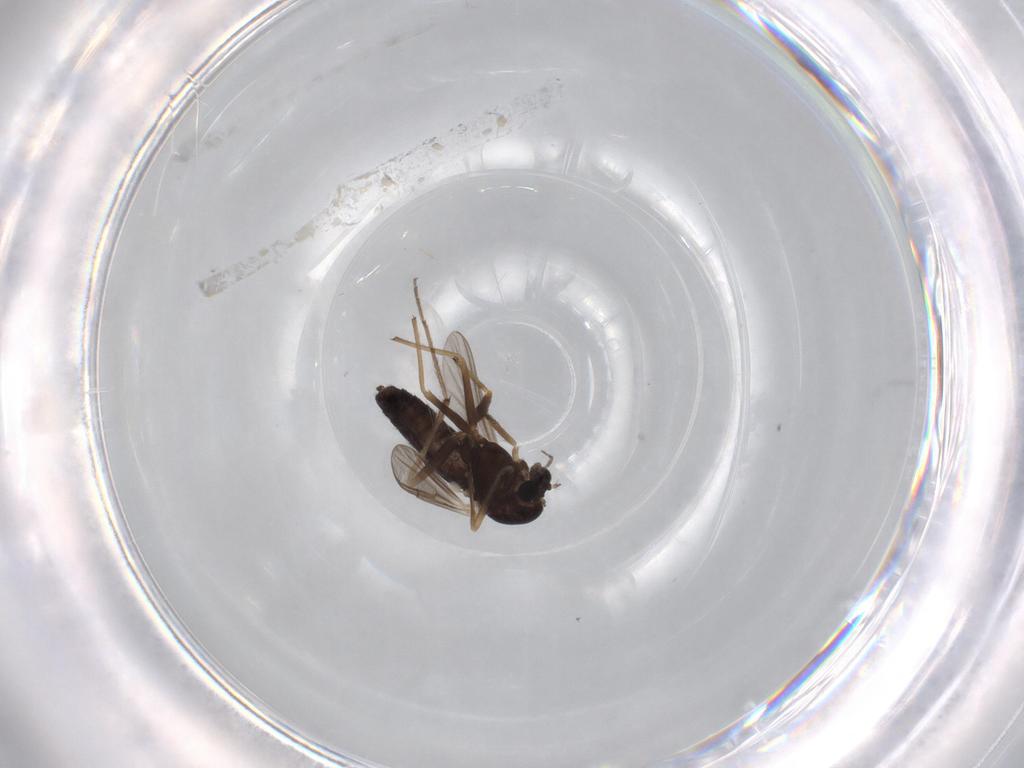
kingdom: Animalia
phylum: Arthropoda
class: Insecta
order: Diptera
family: Chironomidae
